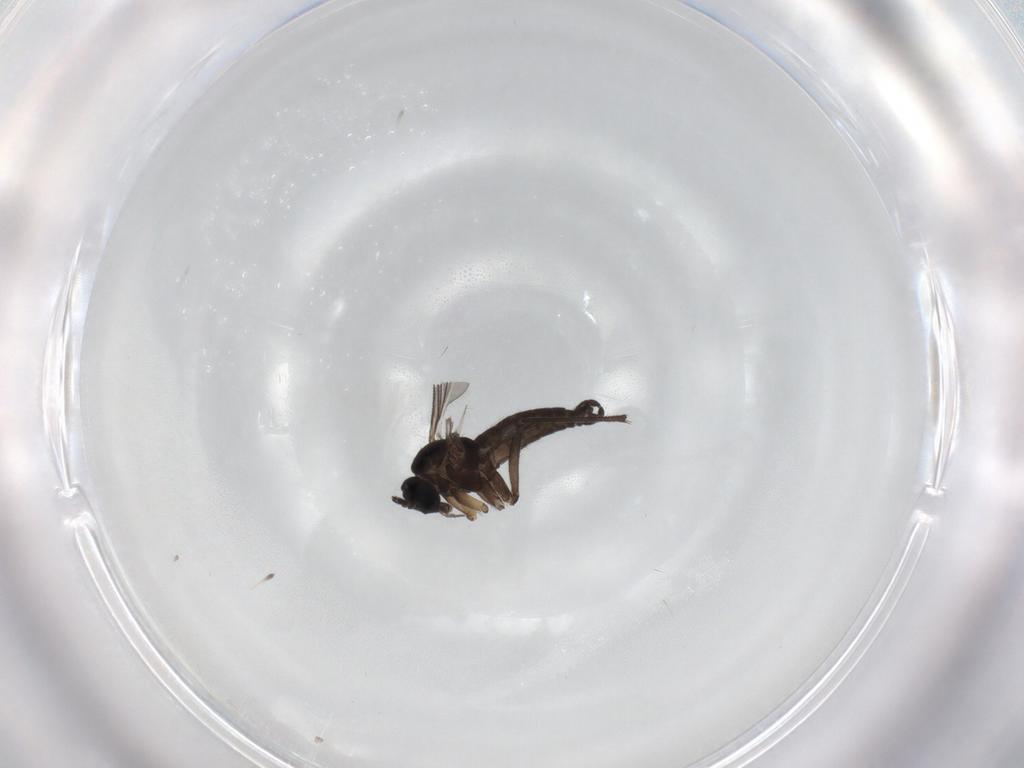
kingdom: Animalia
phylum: Arthropoda
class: Insecta
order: Diptera
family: Sciaridae
